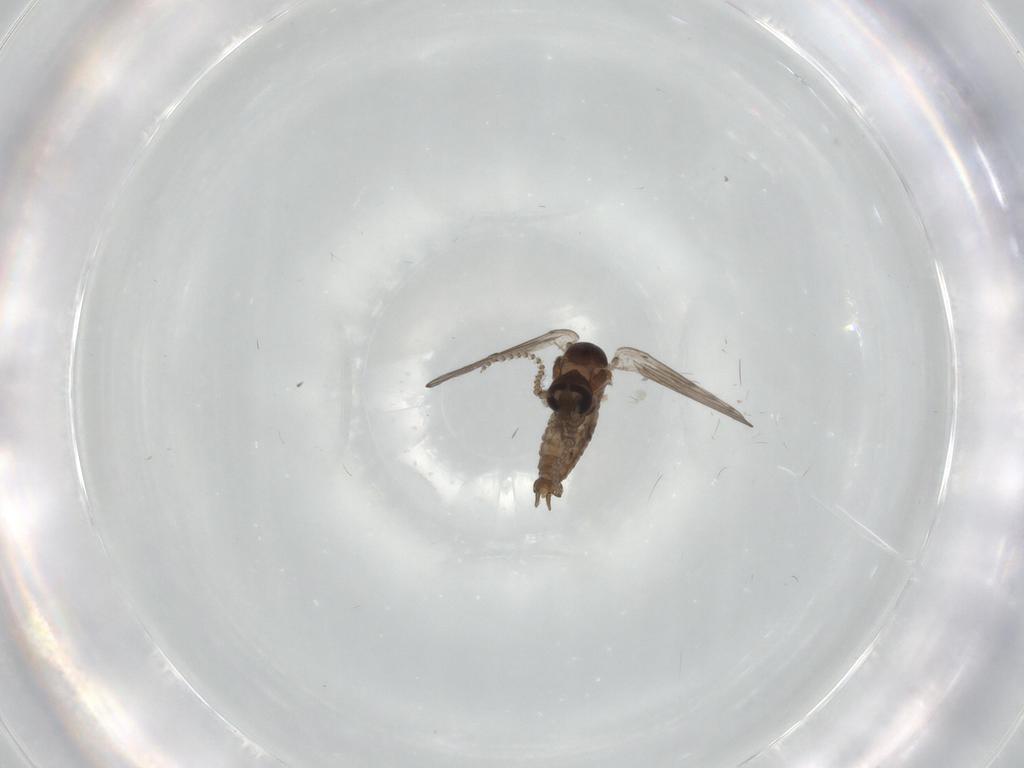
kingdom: Animalia
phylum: Arthropoda
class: Insecta
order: Diptera
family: Psychodidae
